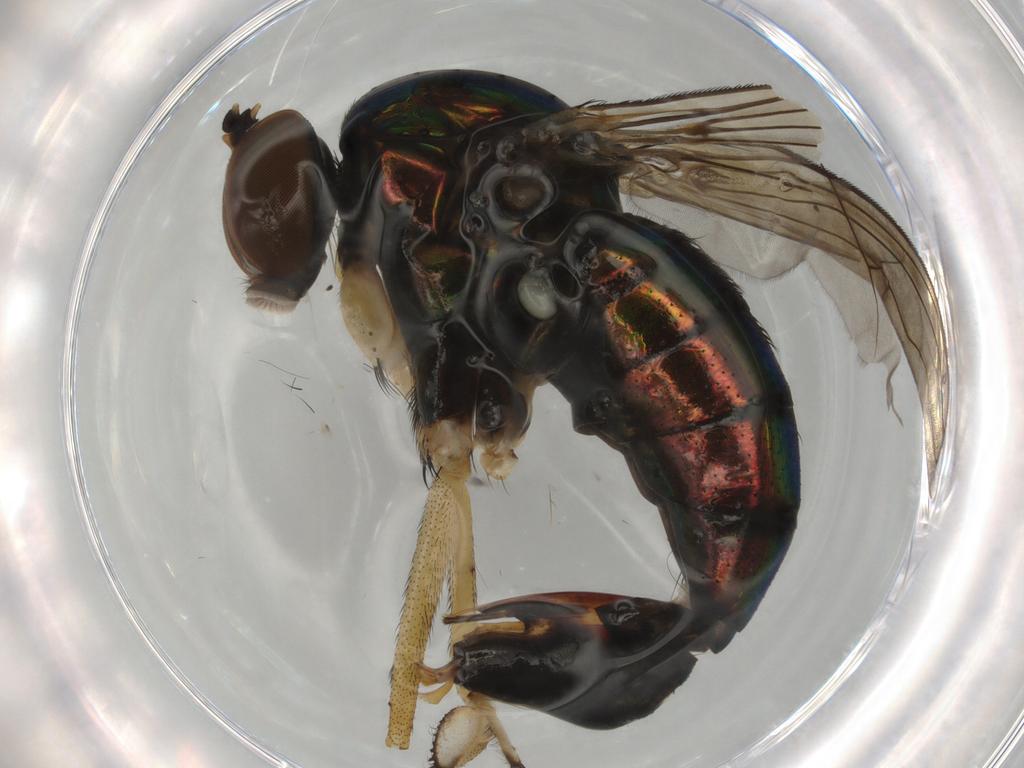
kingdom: Animalia
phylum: Arthropoda
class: Insecta
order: Diptera
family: Dolichopodidae
